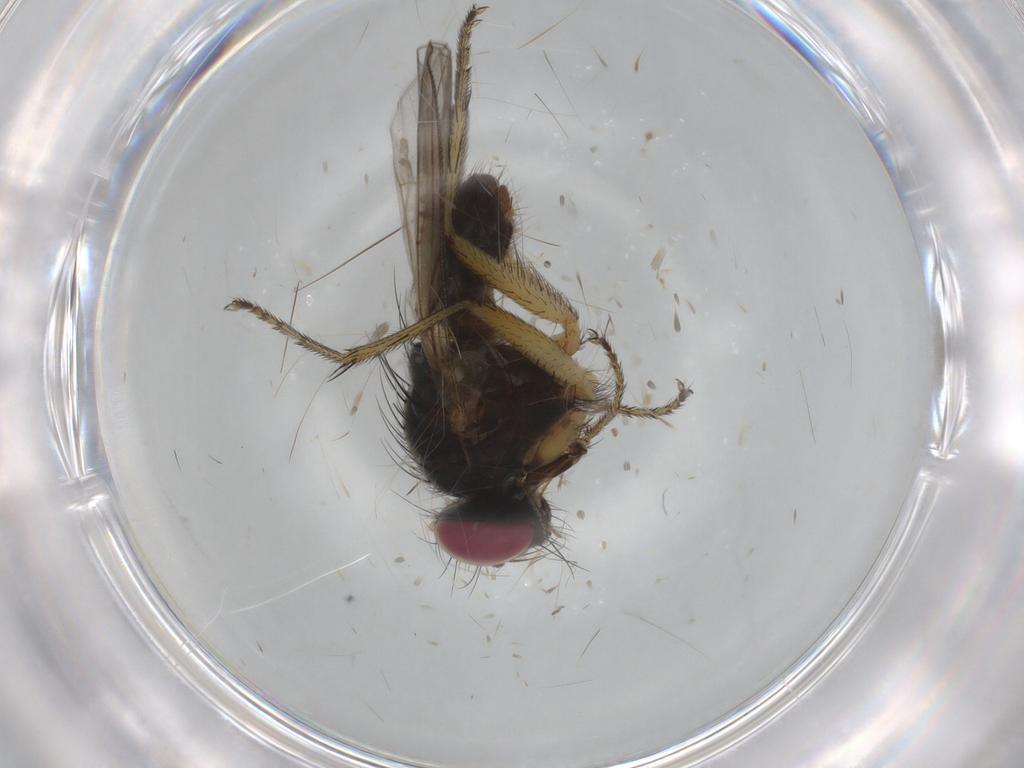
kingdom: Animalia
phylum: Arthropoda
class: Insecta
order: Diptera
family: Muscidae
